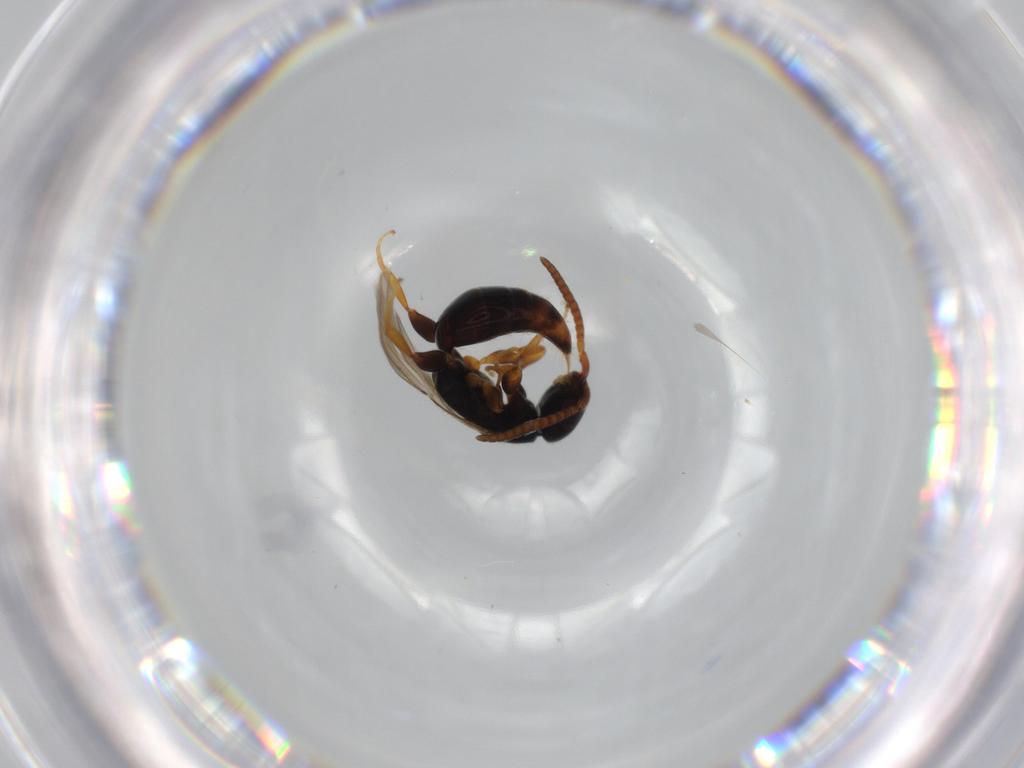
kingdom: Animalia
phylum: Arthropoda
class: Insecta
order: Hymenoptera
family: Bethylidae
